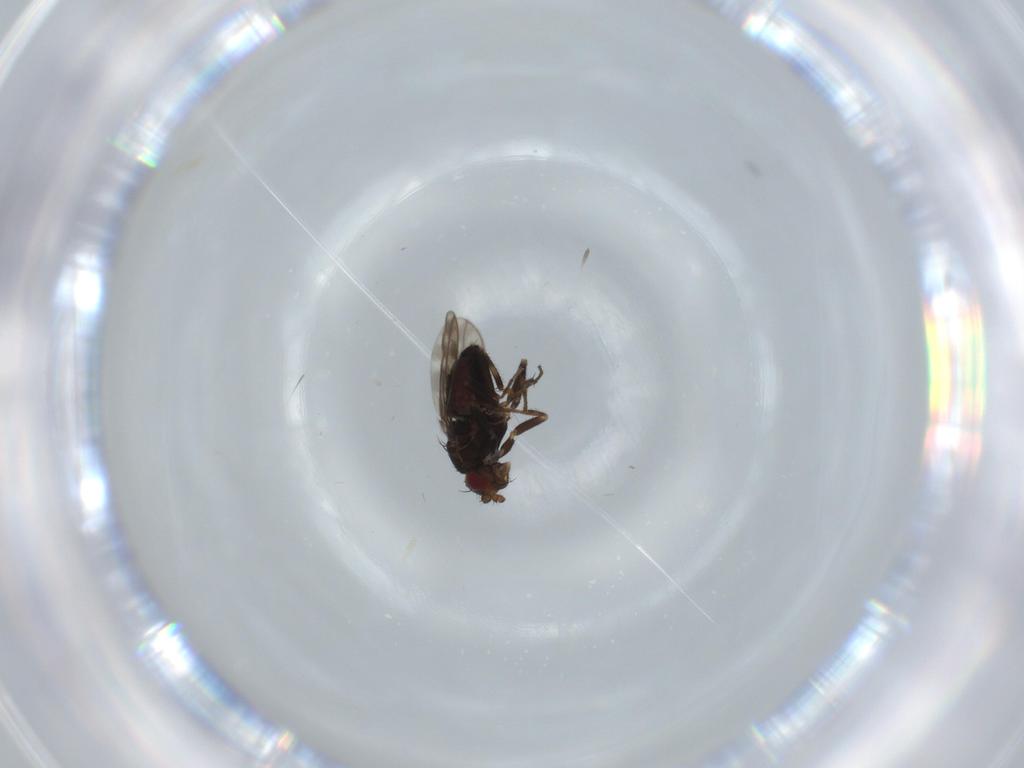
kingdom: Animalia
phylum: Arthropoda
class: Insecta
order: Diptera
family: Sphaeroceridae
